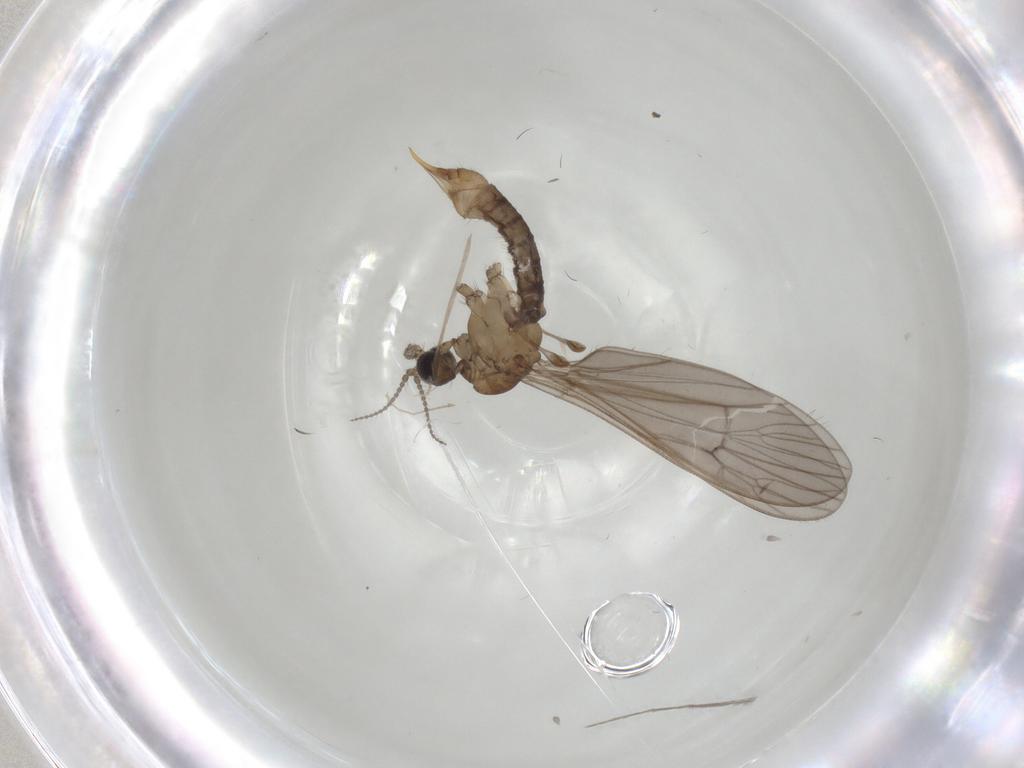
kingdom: Animalia
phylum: Arthropoda
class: Insecta
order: Diptera
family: Limoniidae
